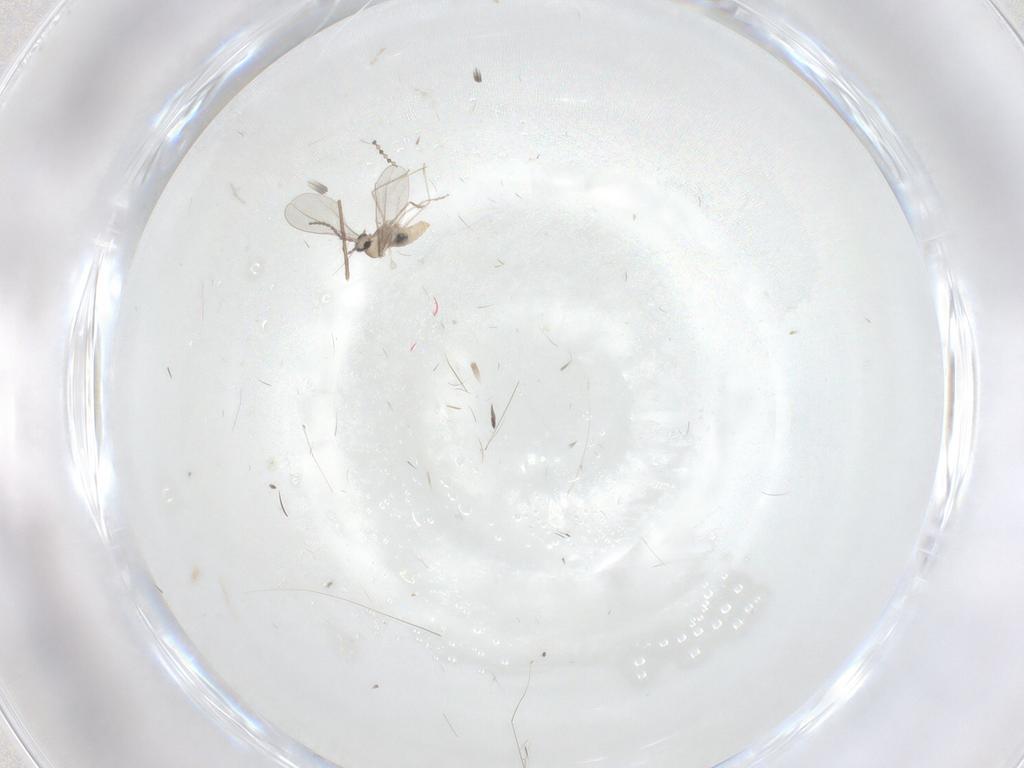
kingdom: Animalia
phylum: Arthropoda
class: Insecta
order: Diptera
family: Cecidomyiidae
